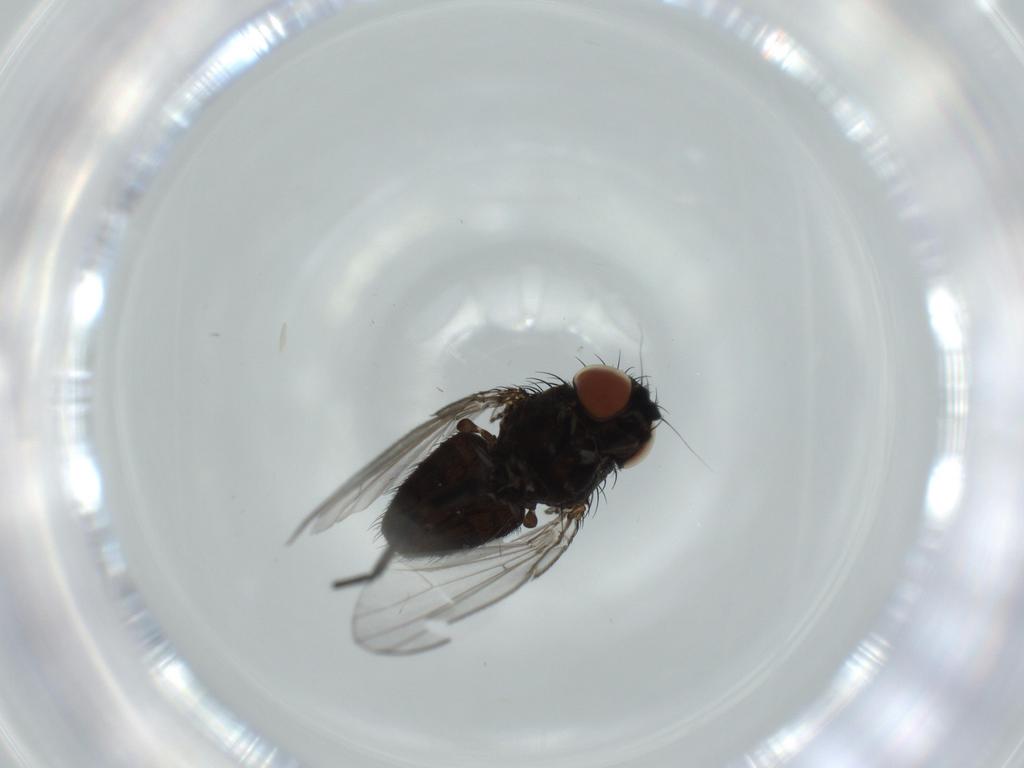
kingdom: Animalia
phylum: Arthropoda
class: Insecta
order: Diptera
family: Milichiidae
